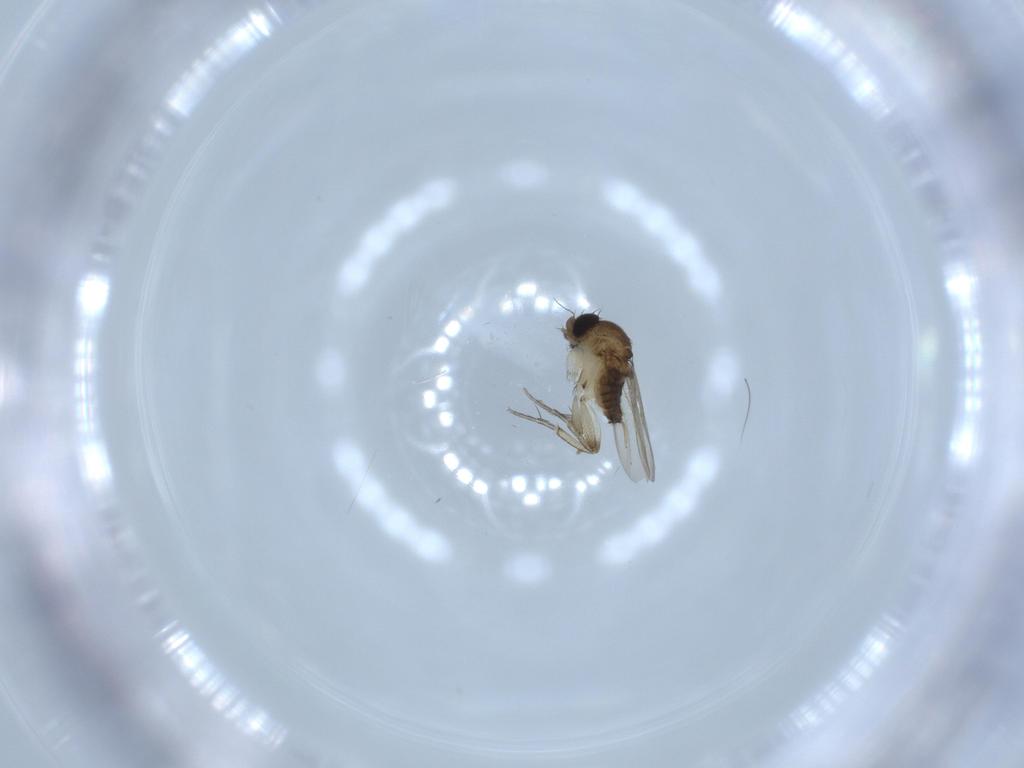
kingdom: Animalia
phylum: Arthropoda
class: Insecta
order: Diptera
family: Phoridae
